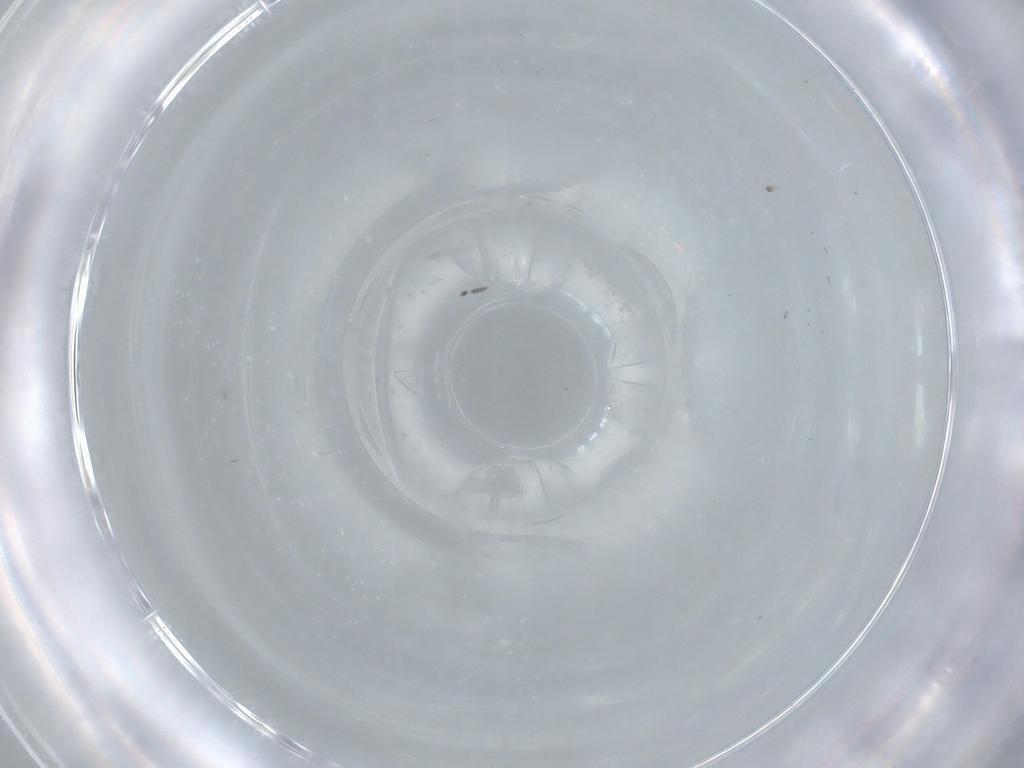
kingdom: Animalia
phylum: Arthropoda
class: Insecta
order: Diptera
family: Cecidomyiidae
